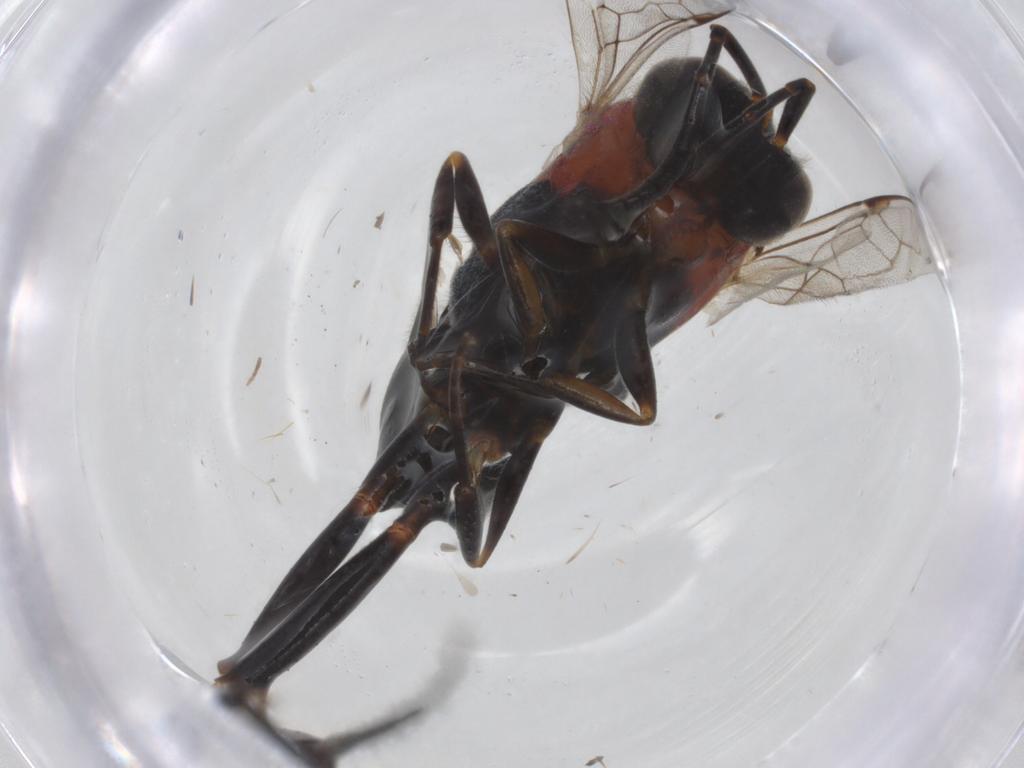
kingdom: Animalia
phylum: Arthropoda
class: Insecta
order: Hymenoptera
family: Evaniidae
